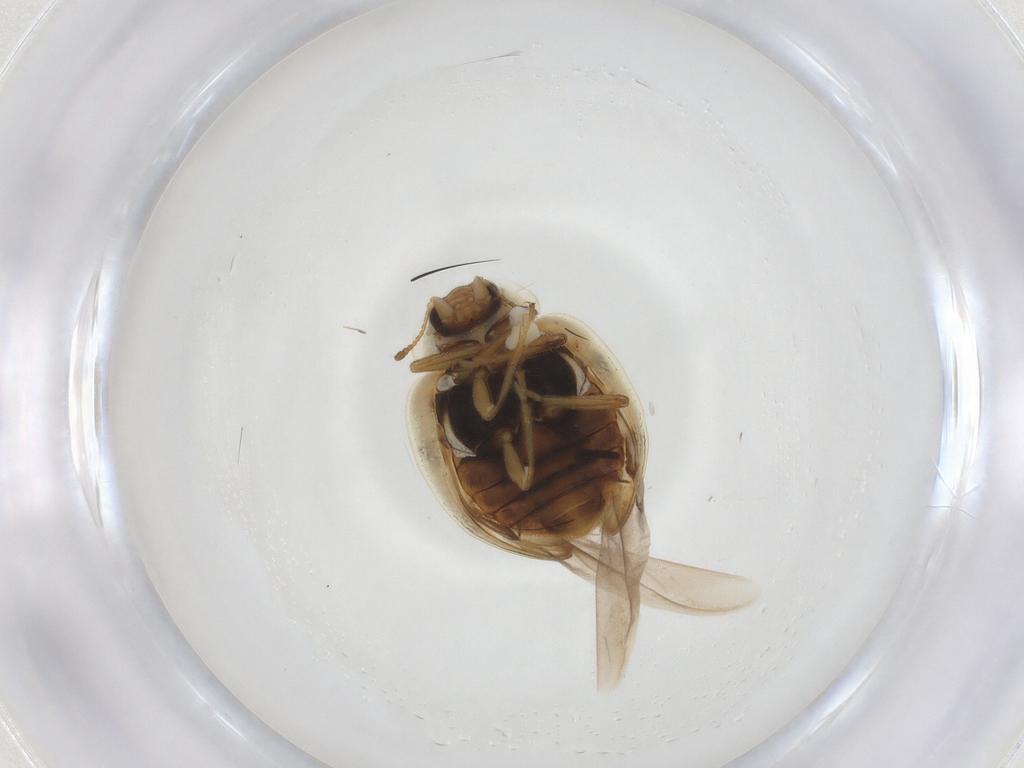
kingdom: Animalia
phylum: Arthropoda
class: Insecta
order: Coleoptera
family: Coccinellidae
